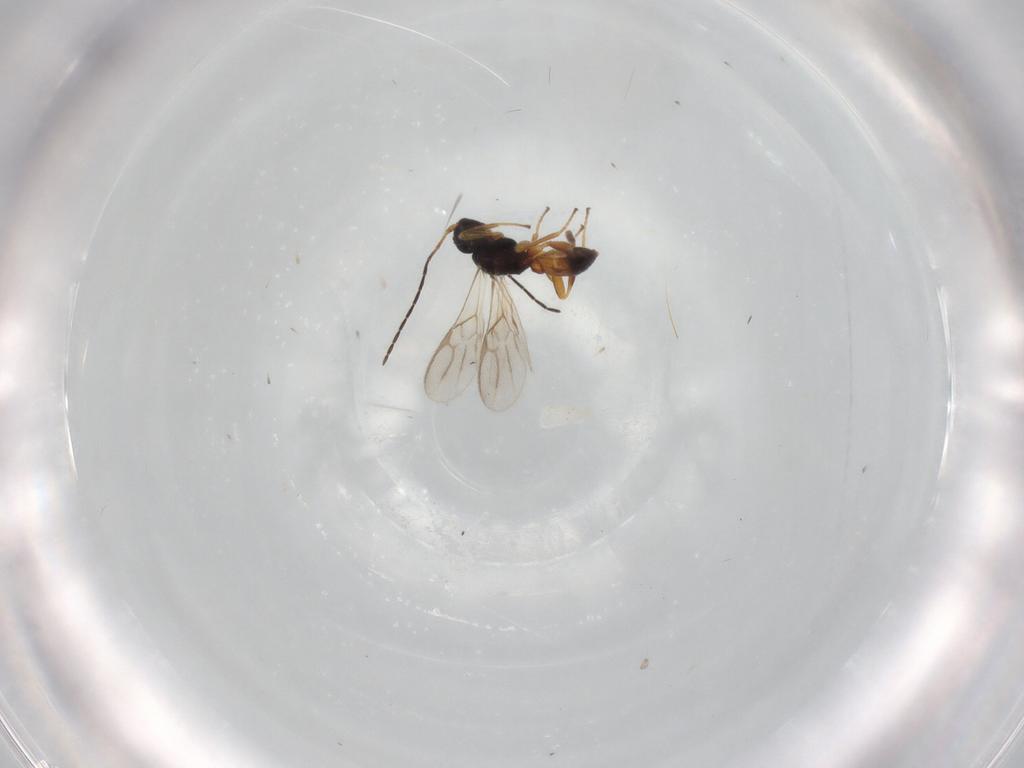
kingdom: Animalia
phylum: Arthropoda
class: Insecta
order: Hymenoptera
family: Braconidae
